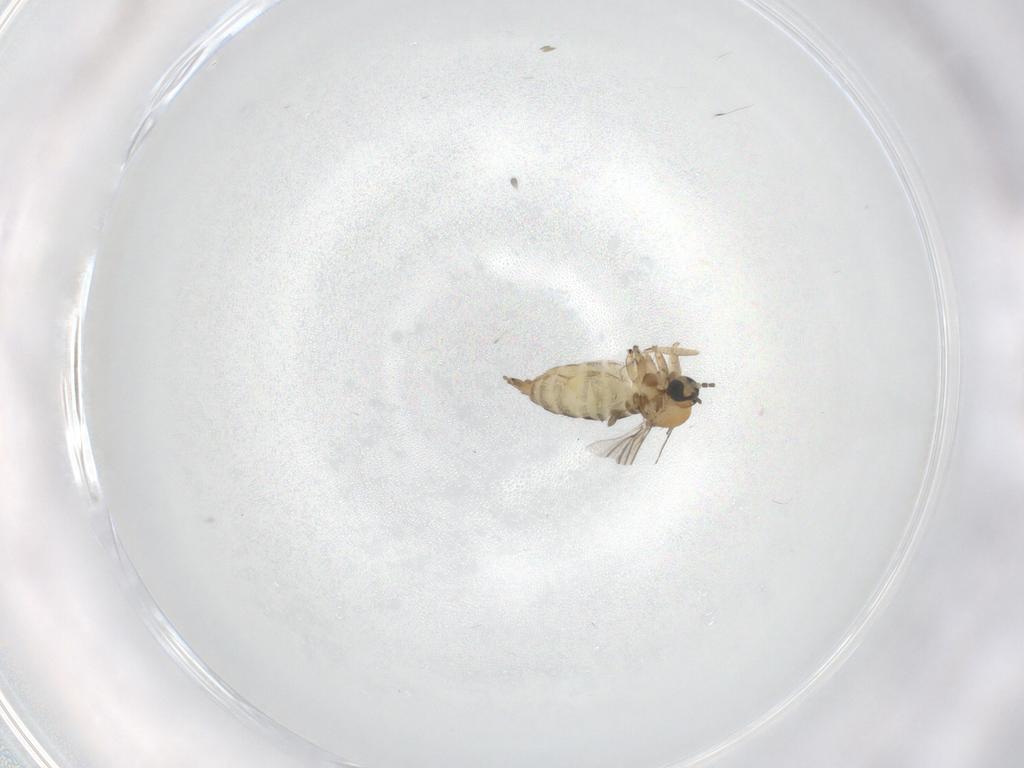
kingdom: Animalia
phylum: Arthropoda
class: Insecta
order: Diptera
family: Sciaridae
